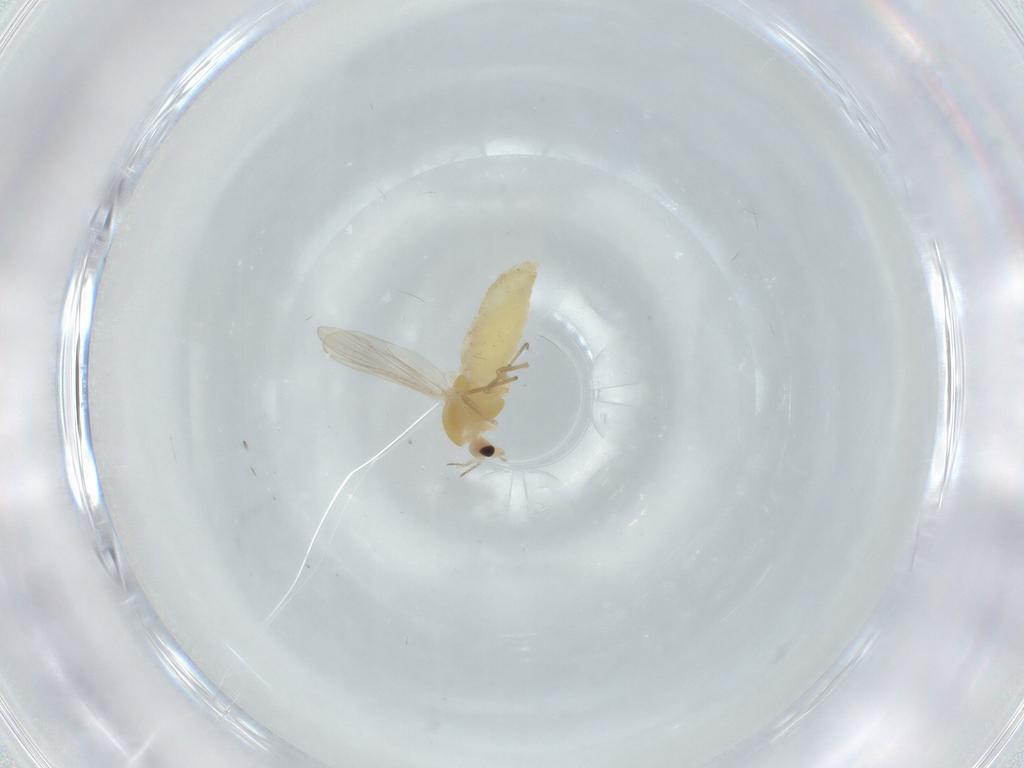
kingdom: Animalia
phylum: Arthropoda
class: Insecta
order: Diptera
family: Chironomidae
